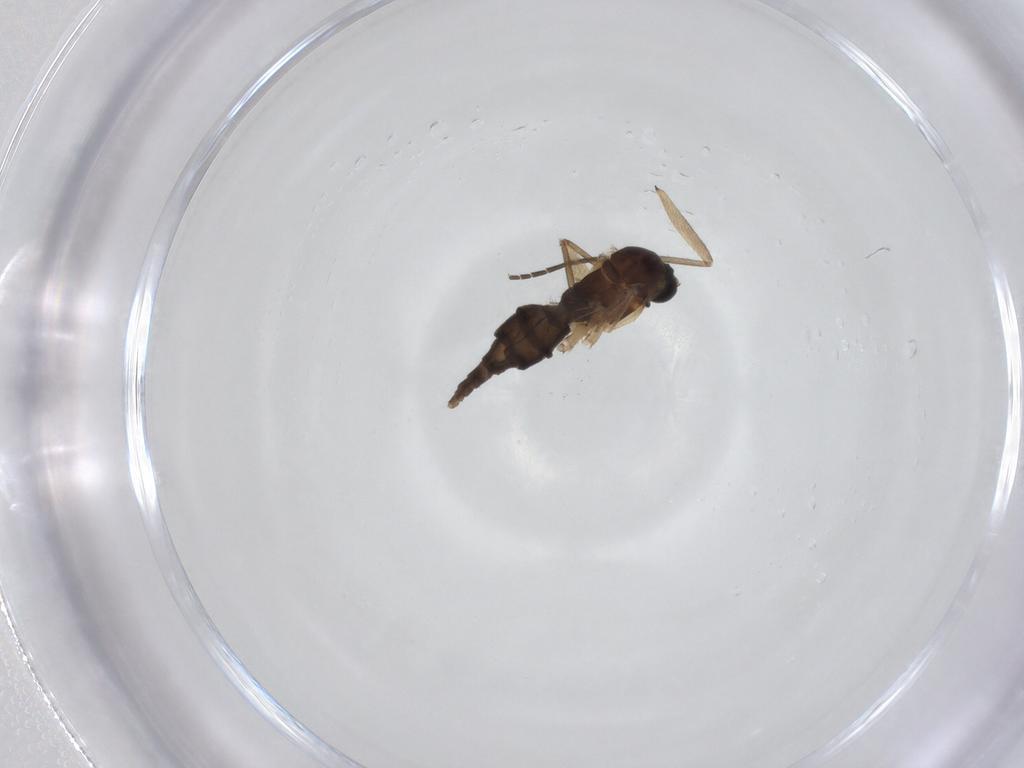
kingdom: Animalia
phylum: Arthropoda
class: Insecta
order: Diptera
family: Sciaridae
